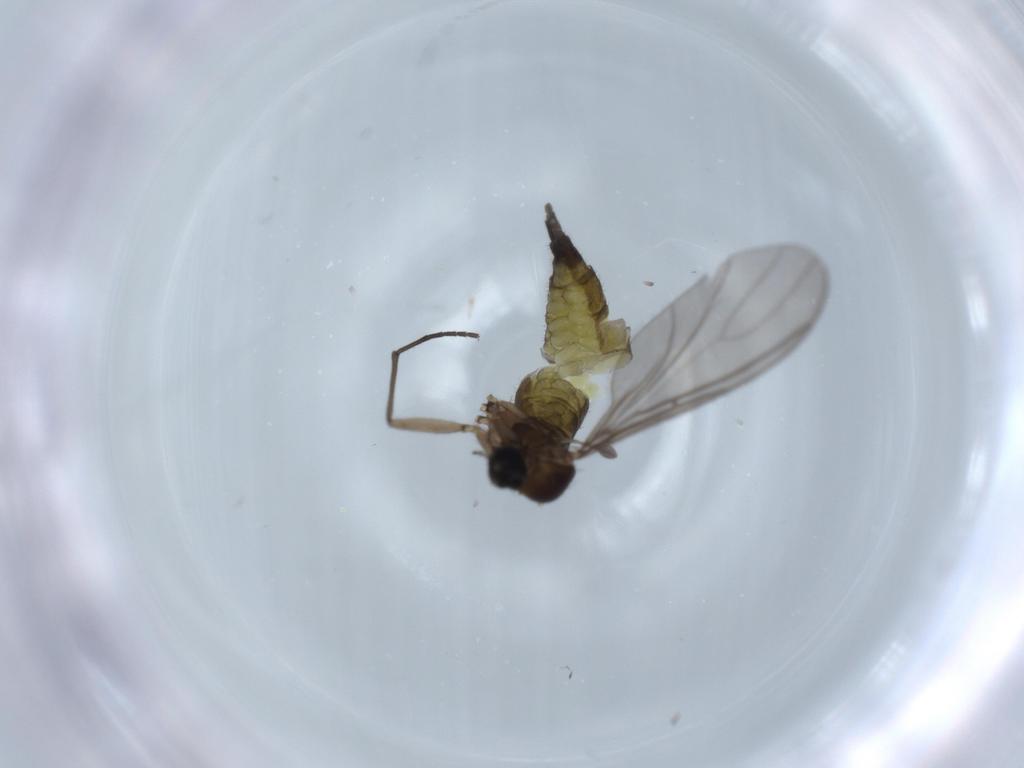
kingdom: Animalia
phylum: Arthropoda
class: Insecta
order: Diptera
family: Sciaridae
